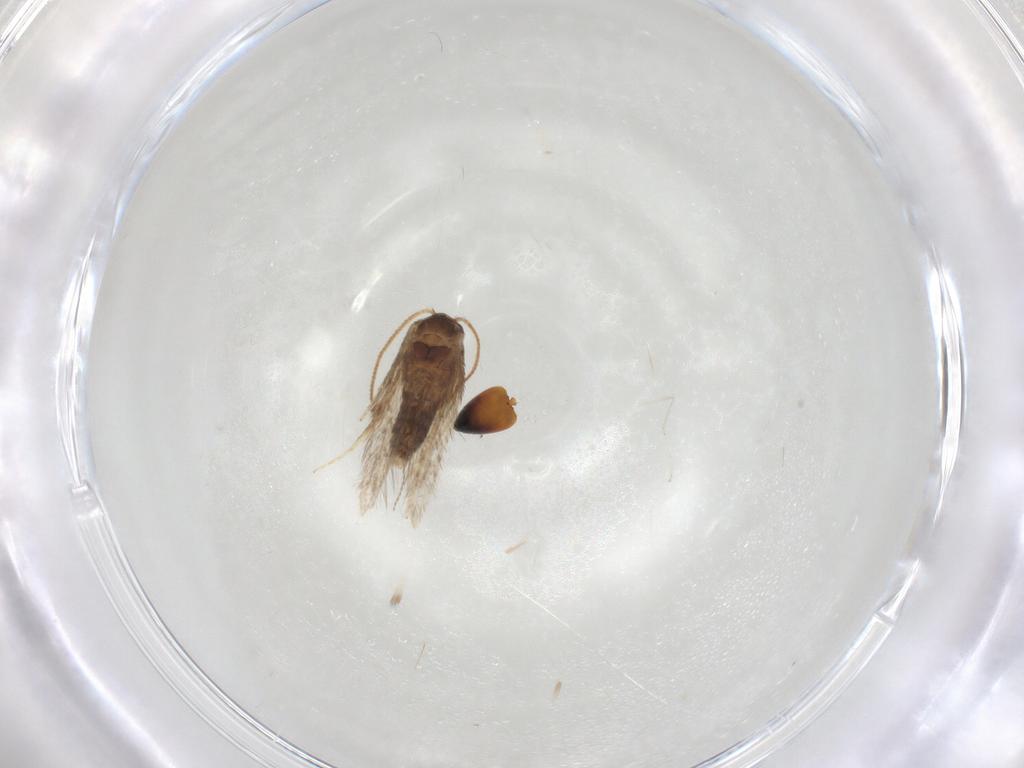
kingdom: Animalia
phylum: Arthropoda
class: Insecta
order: Lepidoptera
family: Nepticulidae
